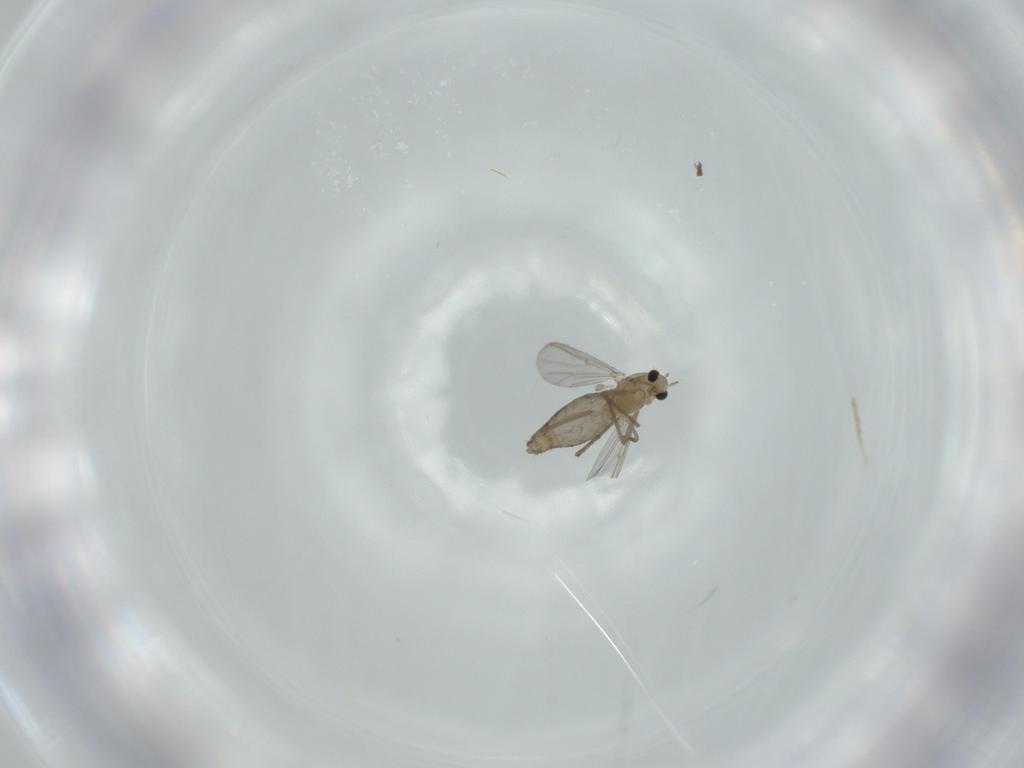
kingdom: Animalia
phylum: Arthropoda
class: Insecta
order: Diptera
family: Chironomidae
